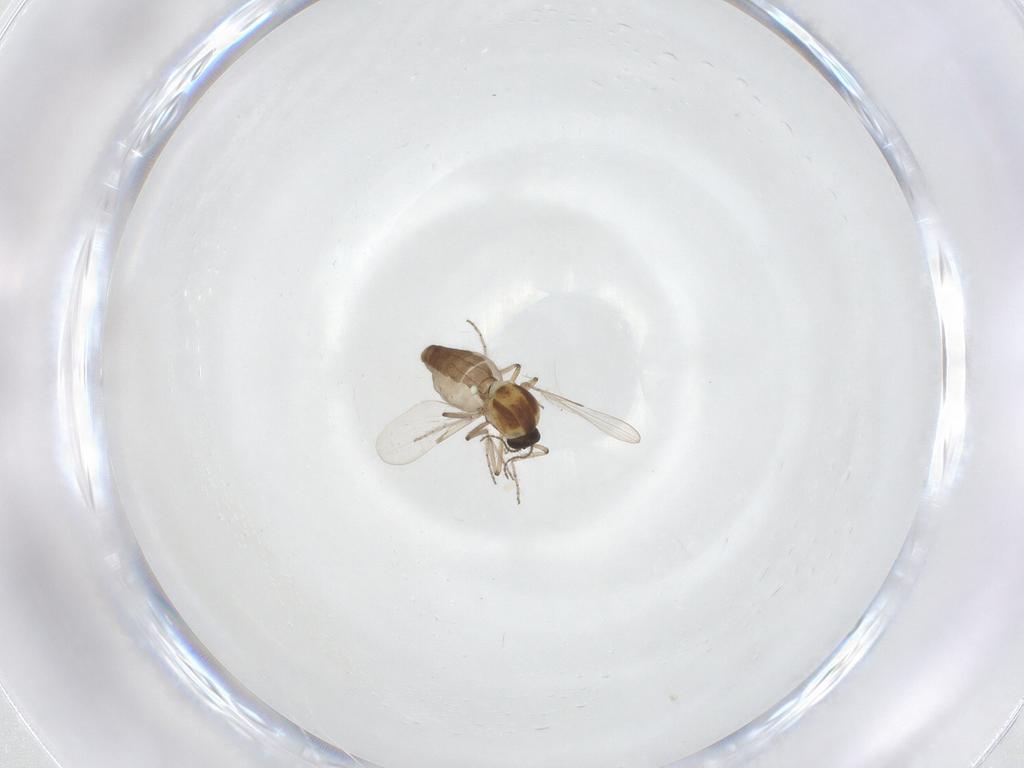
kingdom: Animalia
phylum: Arthropoda
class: Insecta
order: Diptera
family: Ceratopogonidae
